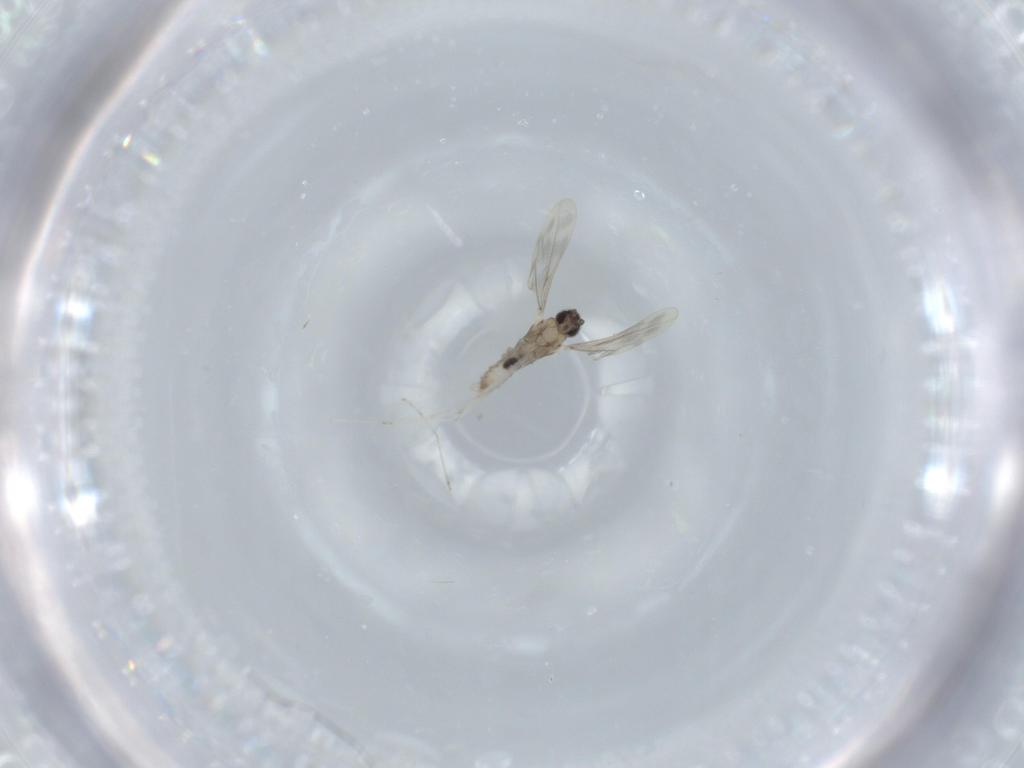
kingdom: Animalia
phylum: Arthropoda
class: Insecta
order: Diptera
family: Cecidomyiidae
